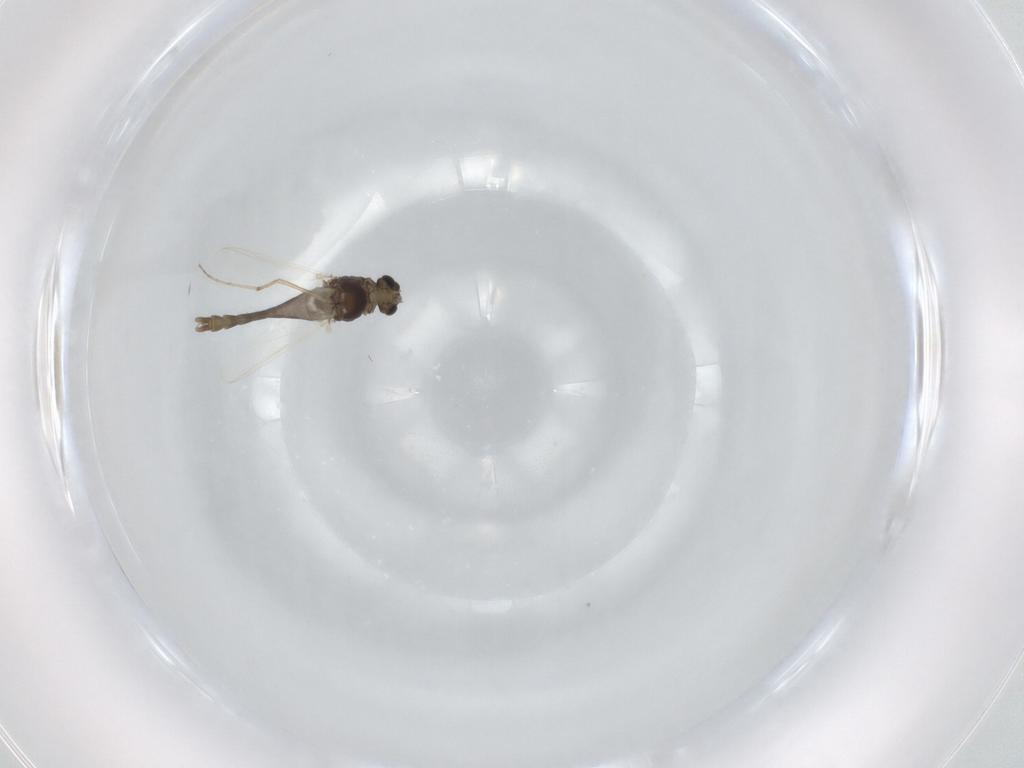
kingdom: Animalia
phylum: Arthropoda
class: Insecta
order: Diptera
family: Chironomidae
